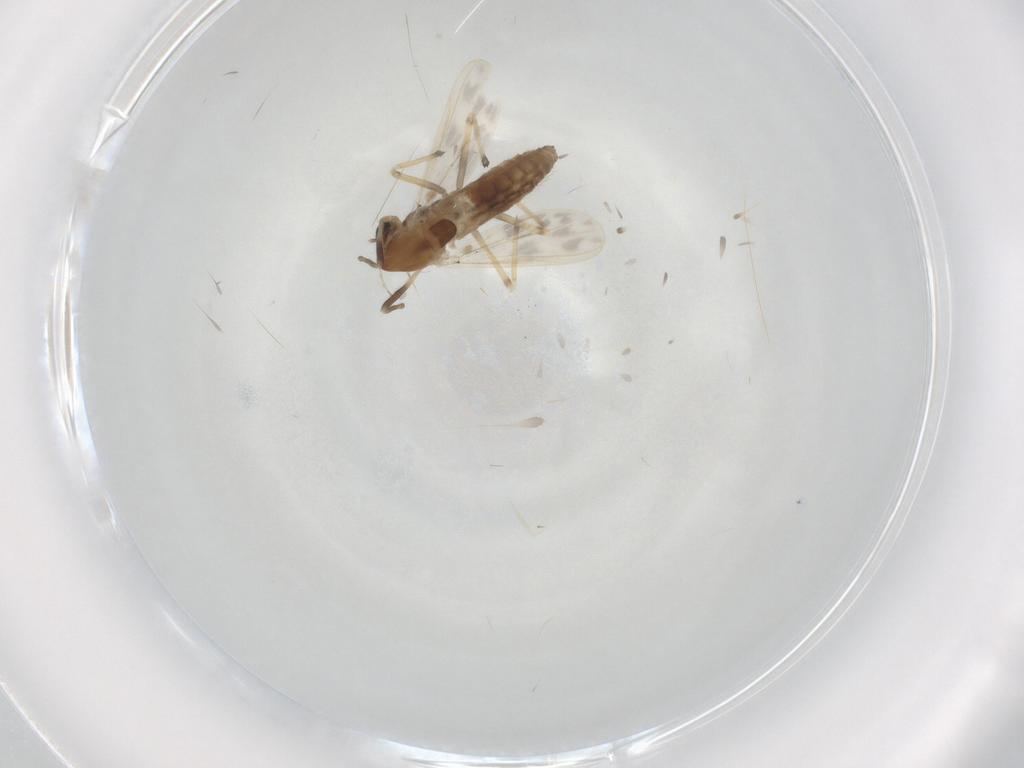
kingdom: Animalia
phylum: Arthropoda
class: Insecta
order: Diptera
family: Chironomidae
